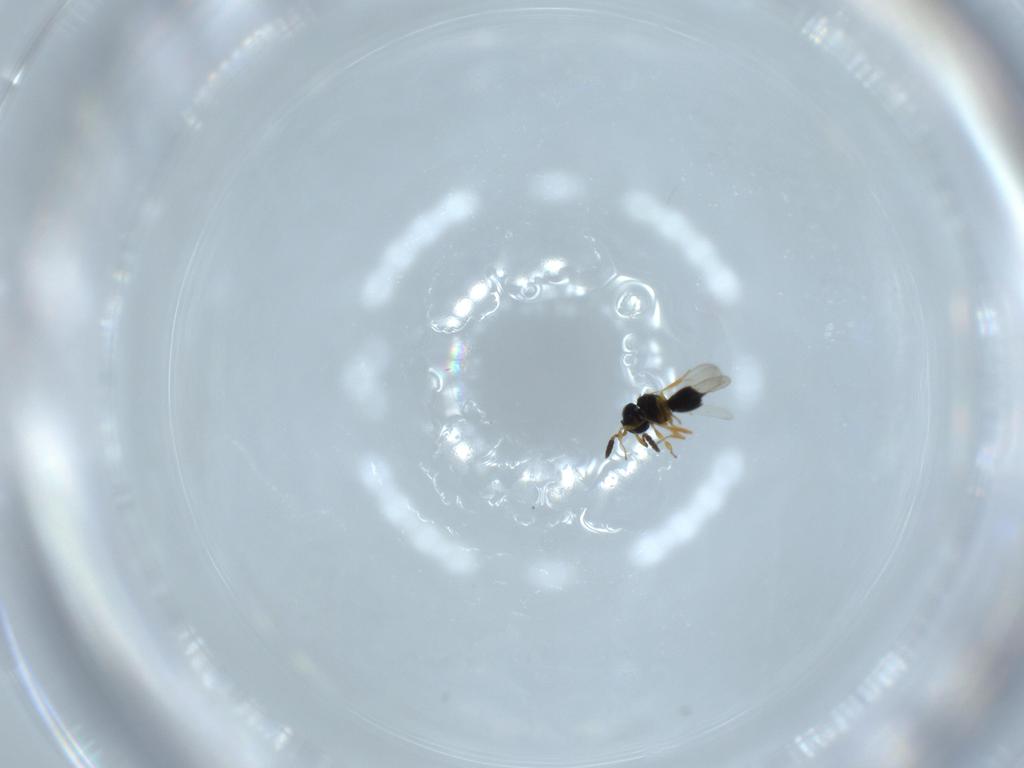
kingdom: Animalia
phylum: Arthropoda
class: Insecta
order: Hymenoptera
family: Scelionidae
